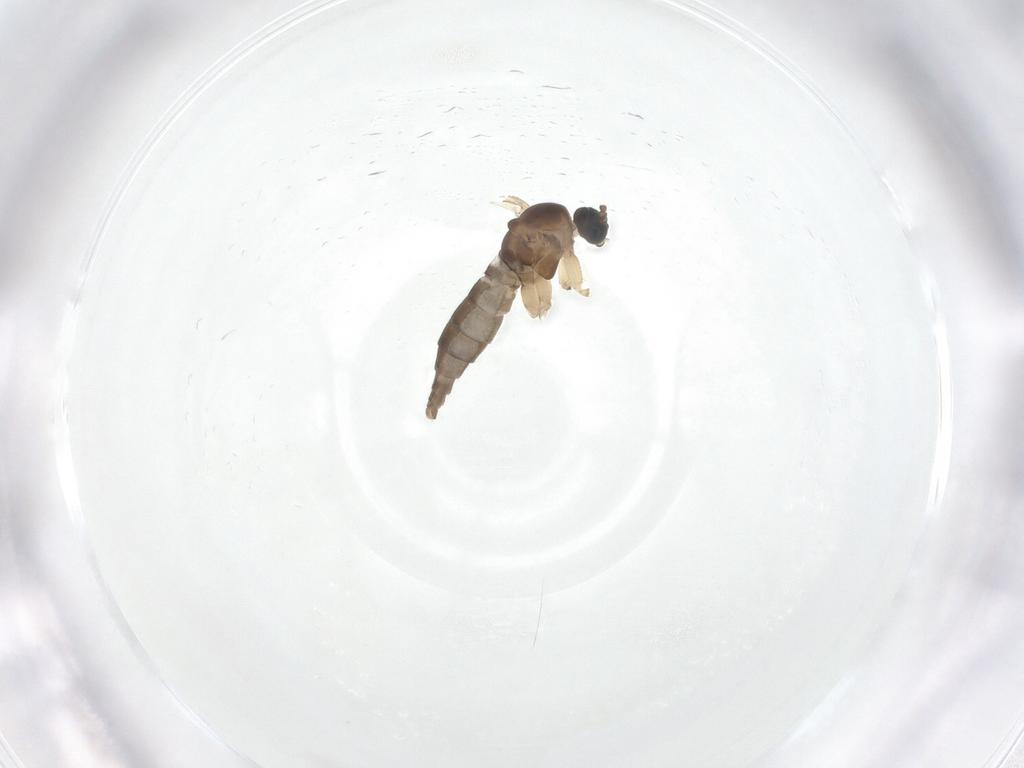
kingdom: Animalia
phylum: Arthropoda
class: Insecta
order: Diptera
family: Sciaridae
